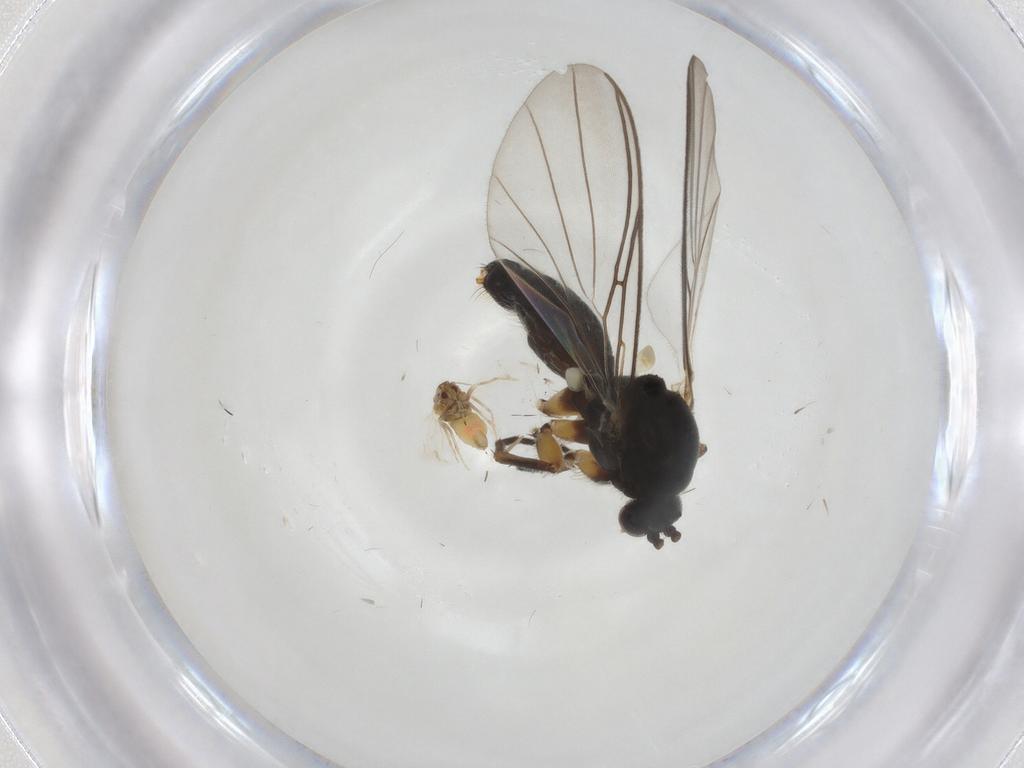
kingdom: Animalia
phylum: Arthropoda
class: Insecta
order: Diptera
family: Mycetophilidae
